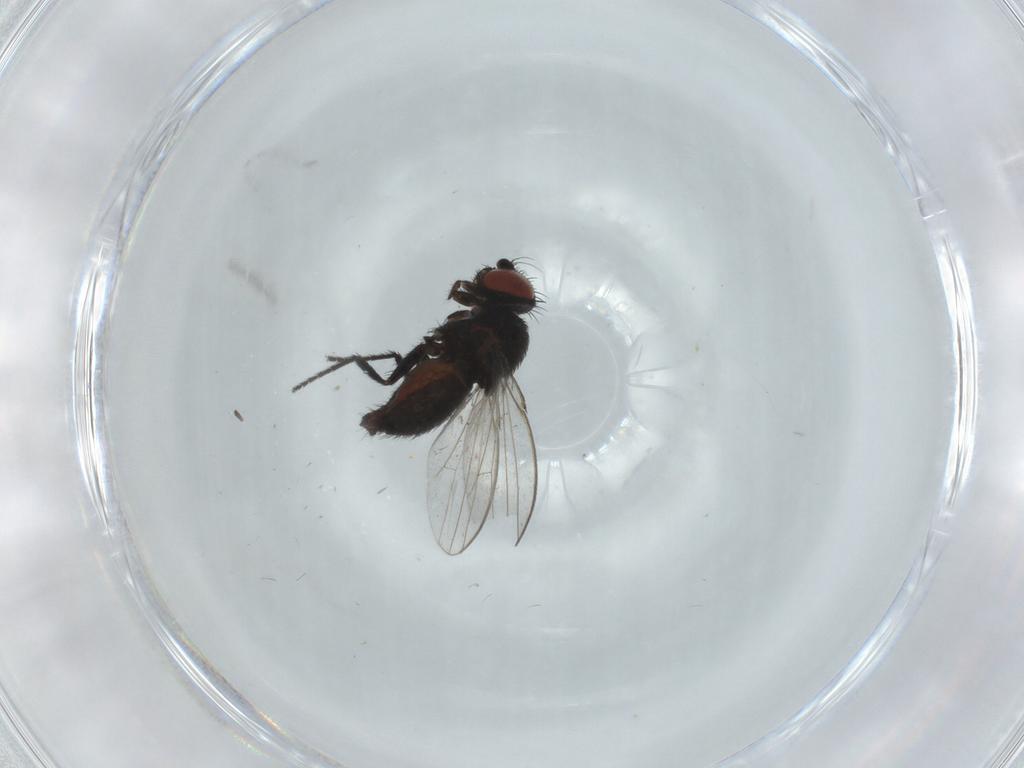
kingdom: Animalia
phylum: Arthropoda
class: Insecta
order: Diptera
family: Milichiidae
